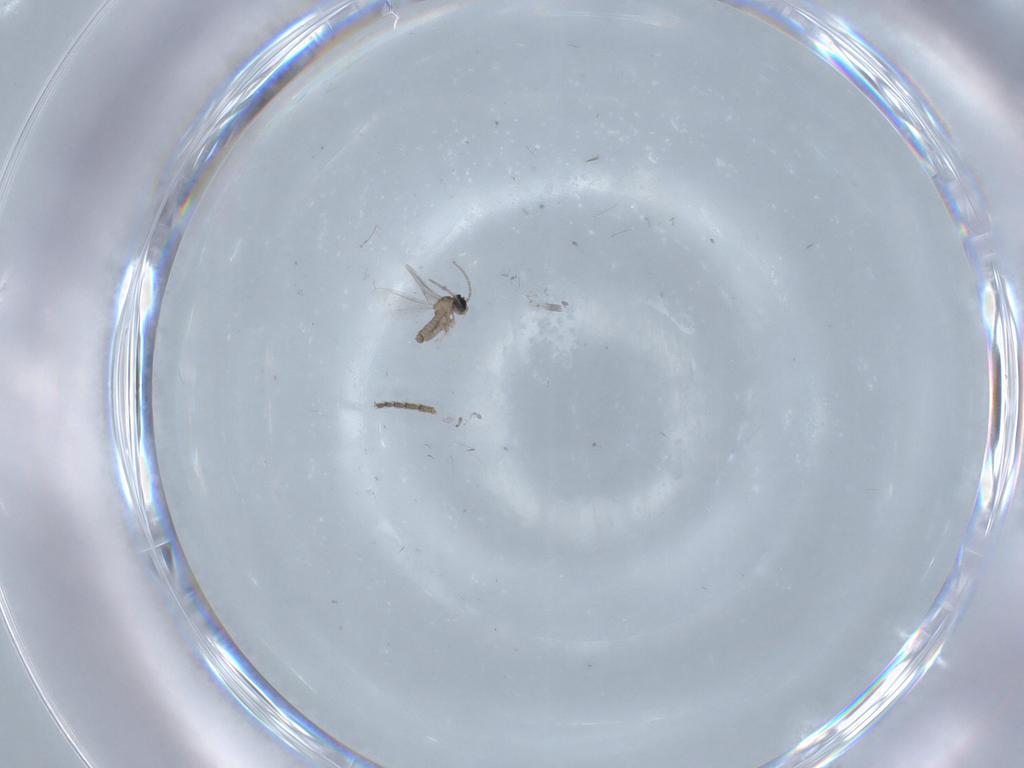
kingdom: Animalia
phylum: Arthropoda
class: Insecta
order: Diptera
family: Cecidomyiidae
